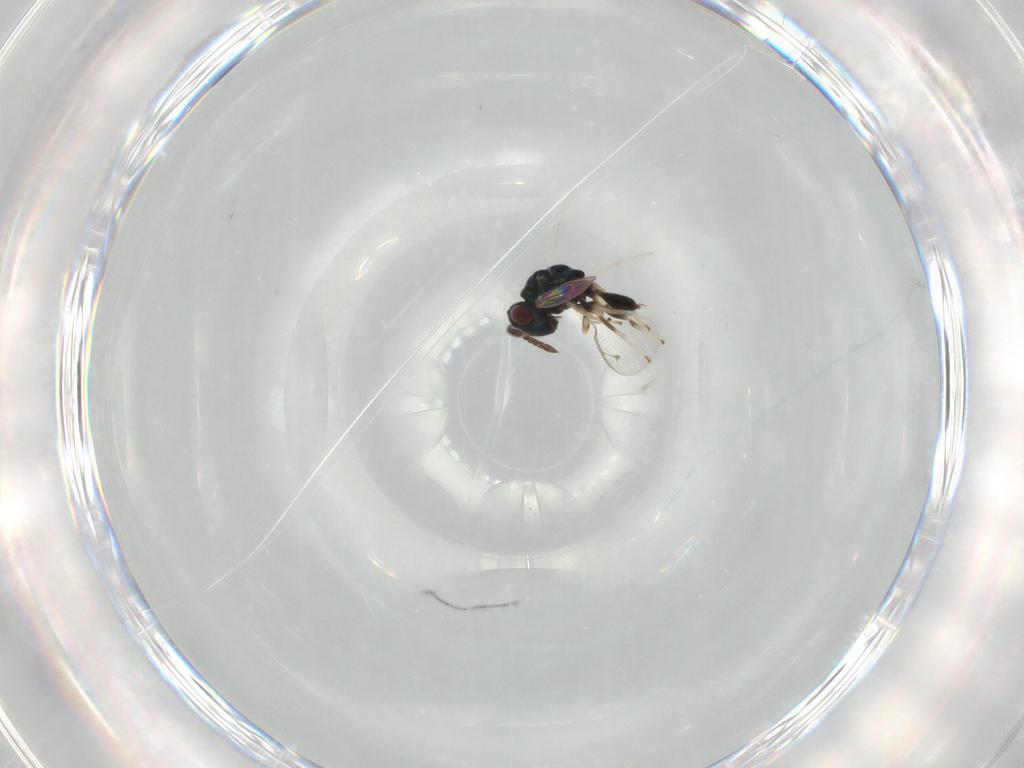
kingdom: Animalia
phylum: Arthropoda
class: Insecta
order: Hymenoptera
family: Pteromalidae
